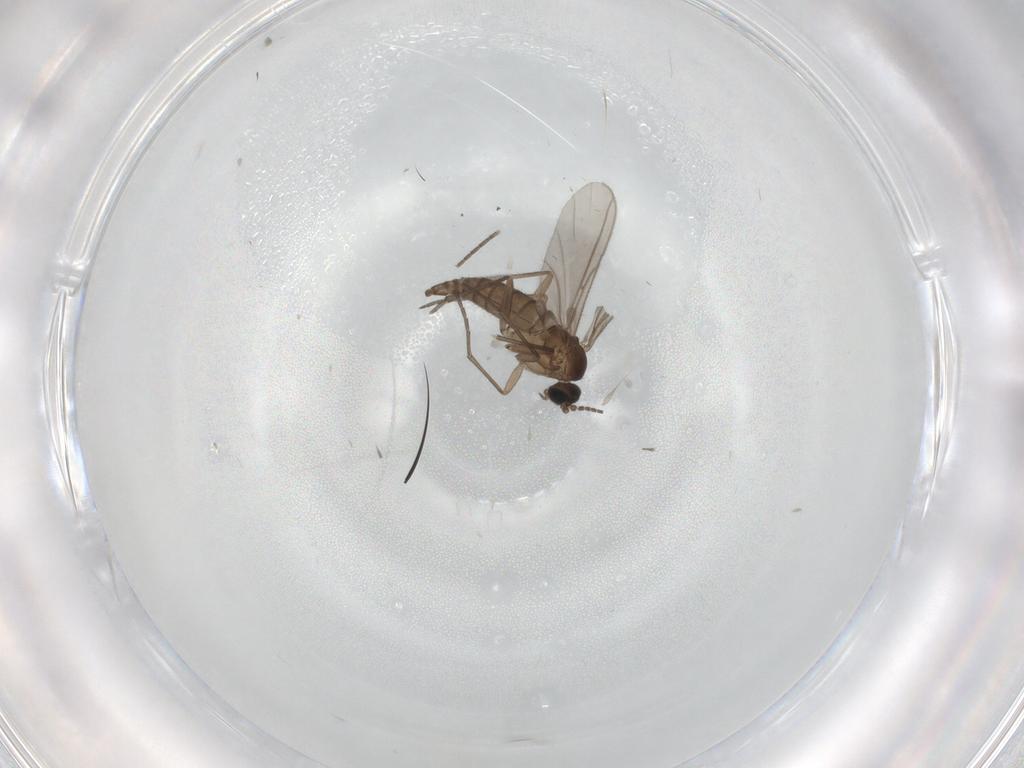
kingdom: Animalia
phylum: Arthropoda
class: Insecta
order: Diptera
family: Sciaridae
